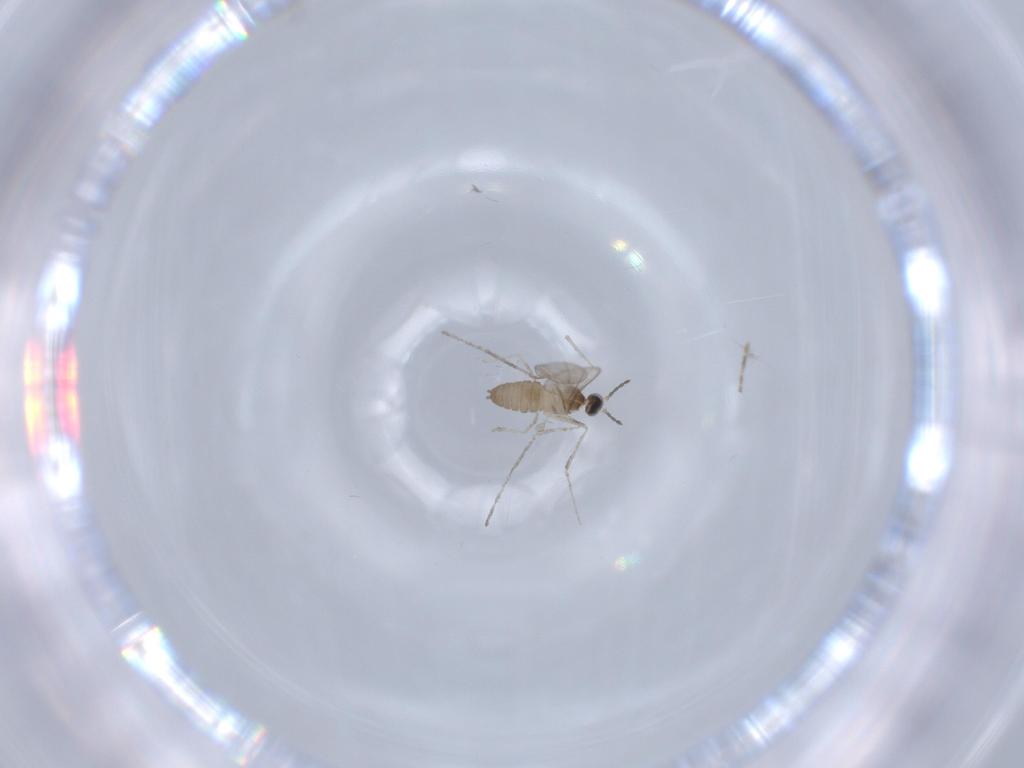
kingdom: Animalia
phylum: Arthropoda
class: Insecta
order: Diptera
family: Cecidomyiidae
